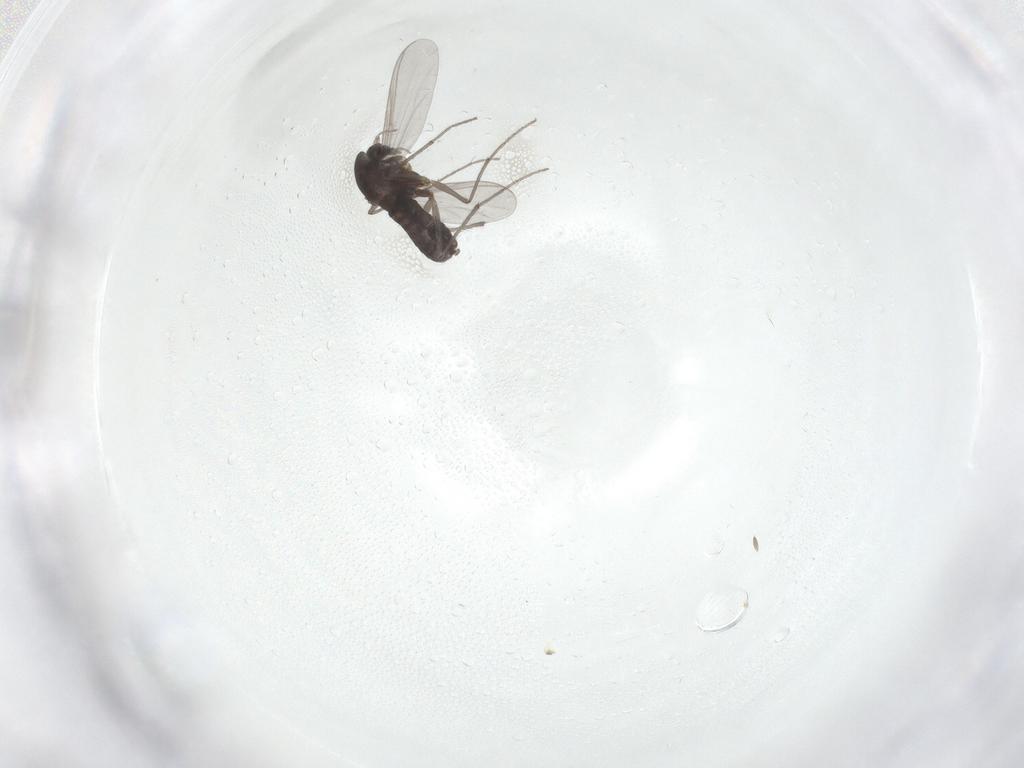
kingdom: Animalia
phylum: Arthropoda
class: Insecta
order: Diptera
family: Chironomidae
